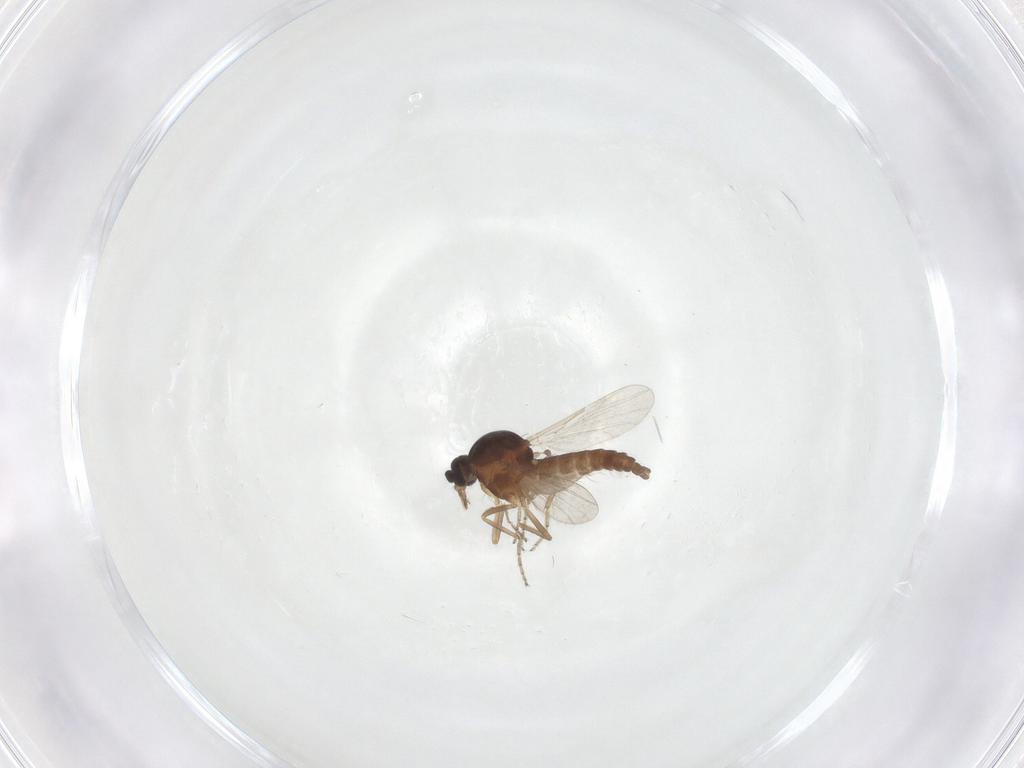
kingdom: Animalia
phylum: Arthropoda
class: Insecta
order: Diptera
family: Ceratopogonidae
